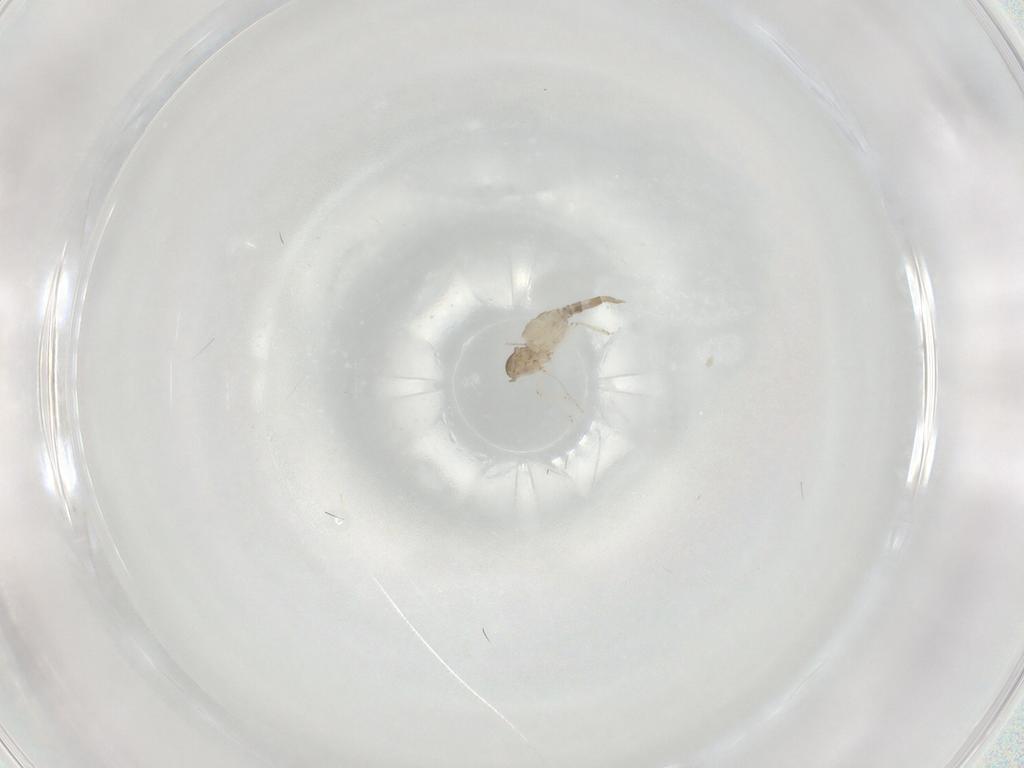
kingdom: Animalia
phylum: Arthropoda
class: Insecta
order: Diptera
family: Cecidomyiidae
